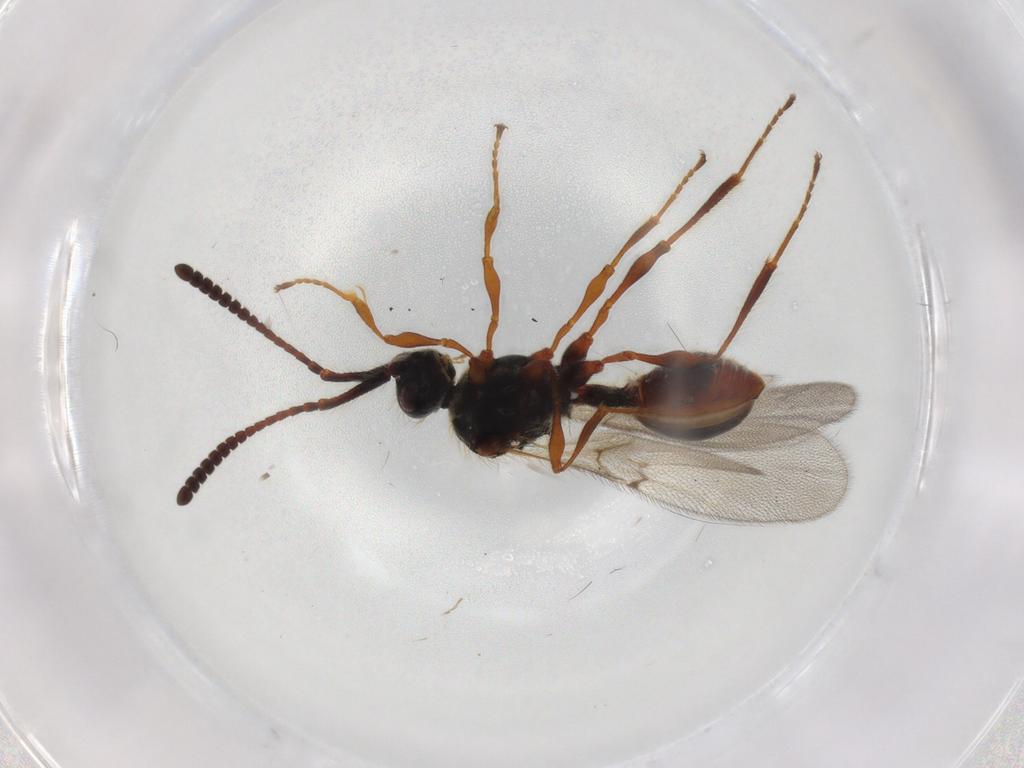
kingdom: Animalia
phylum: Arthropoda
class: Insecta
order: Hymenoptera
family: Diapriidae
